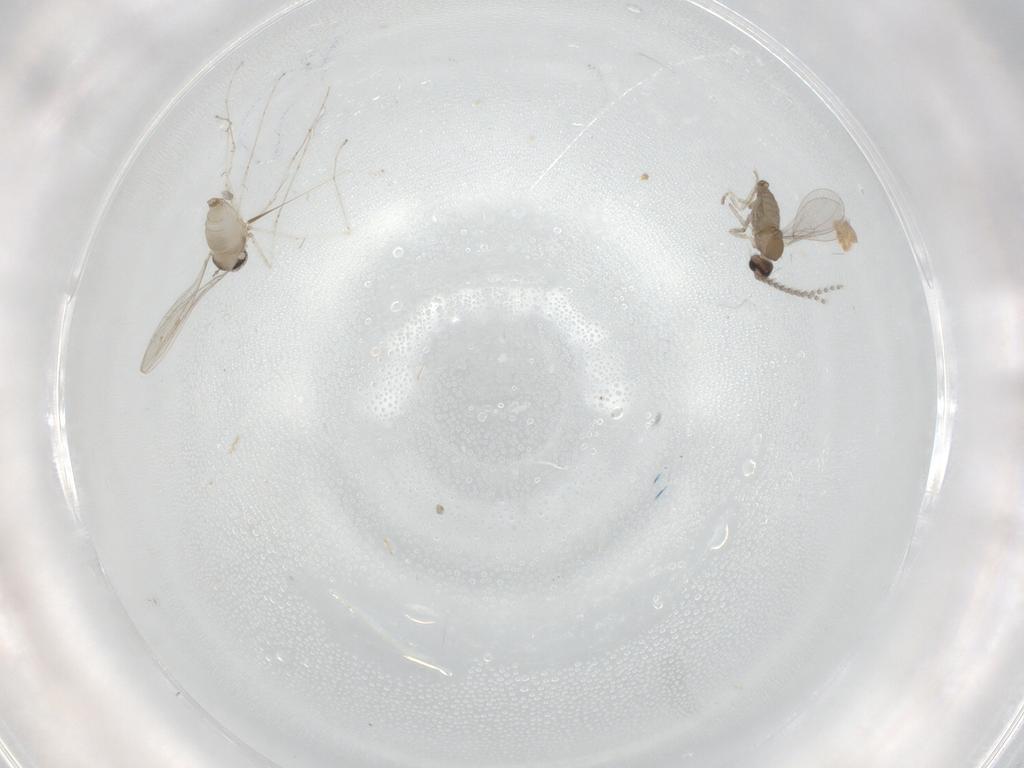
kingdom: Animalia
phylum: Arthropoda
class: Insecta
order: Diptera
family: Cecidomyiidae
